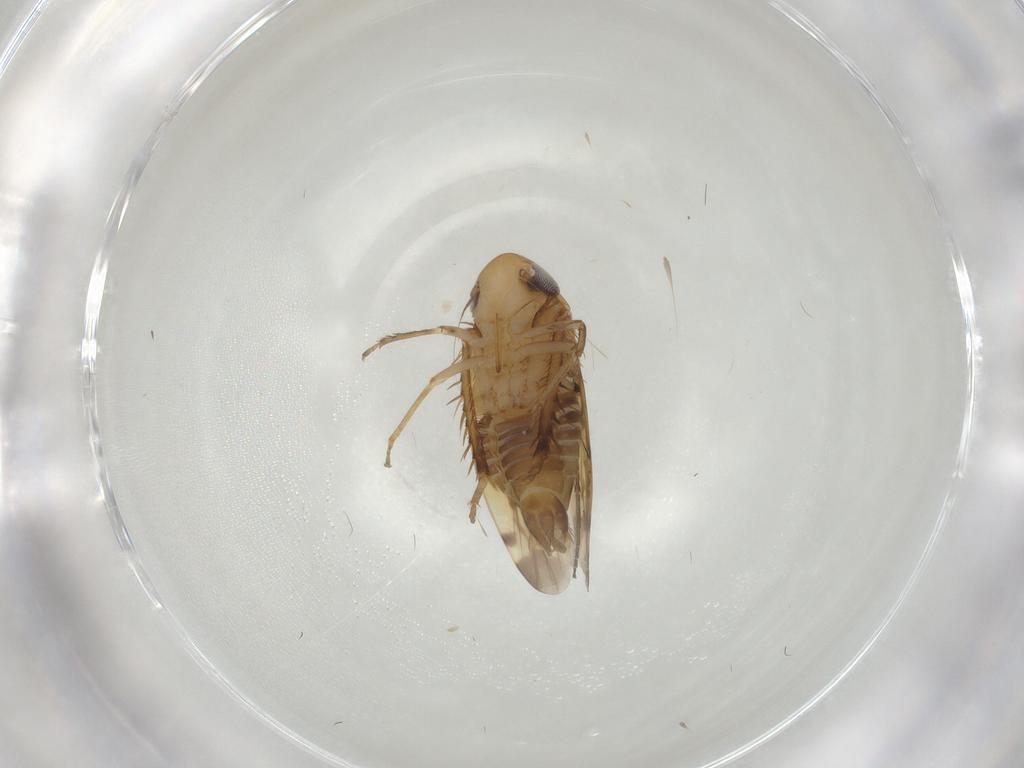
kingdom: Animalia
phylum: Arthropoda
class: Insecta
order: Hemiptera
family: Cicadellidae
